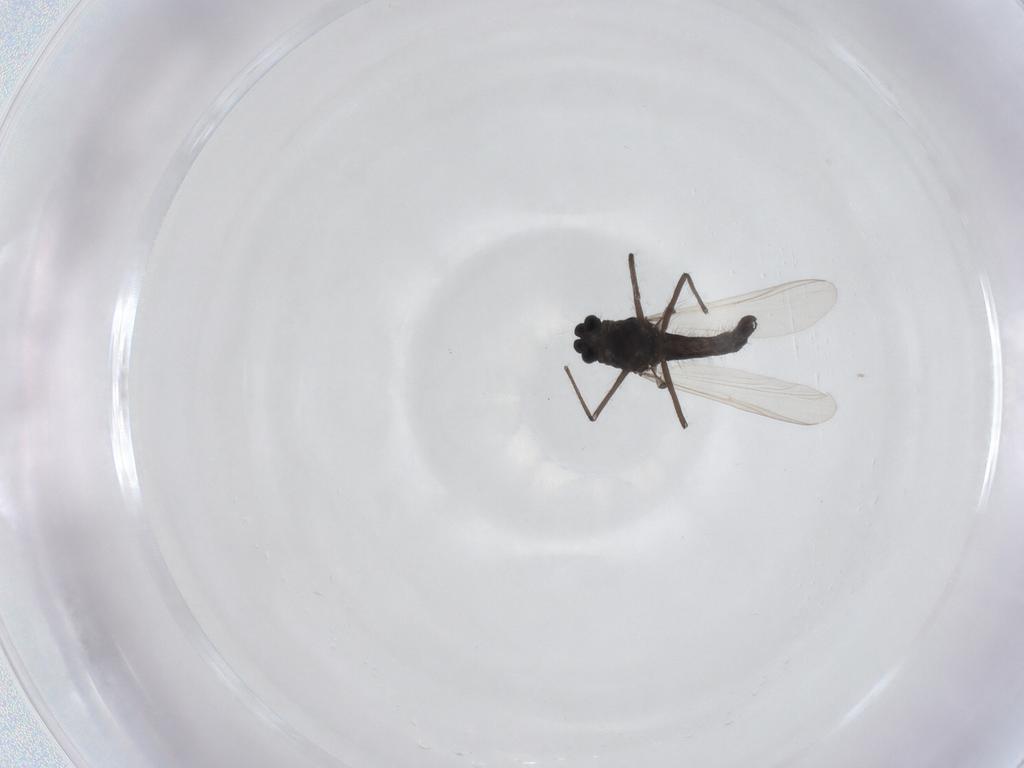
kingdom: Animalia
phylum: Arthropoda
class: Insecta
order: Diptera
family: Chironomidae
